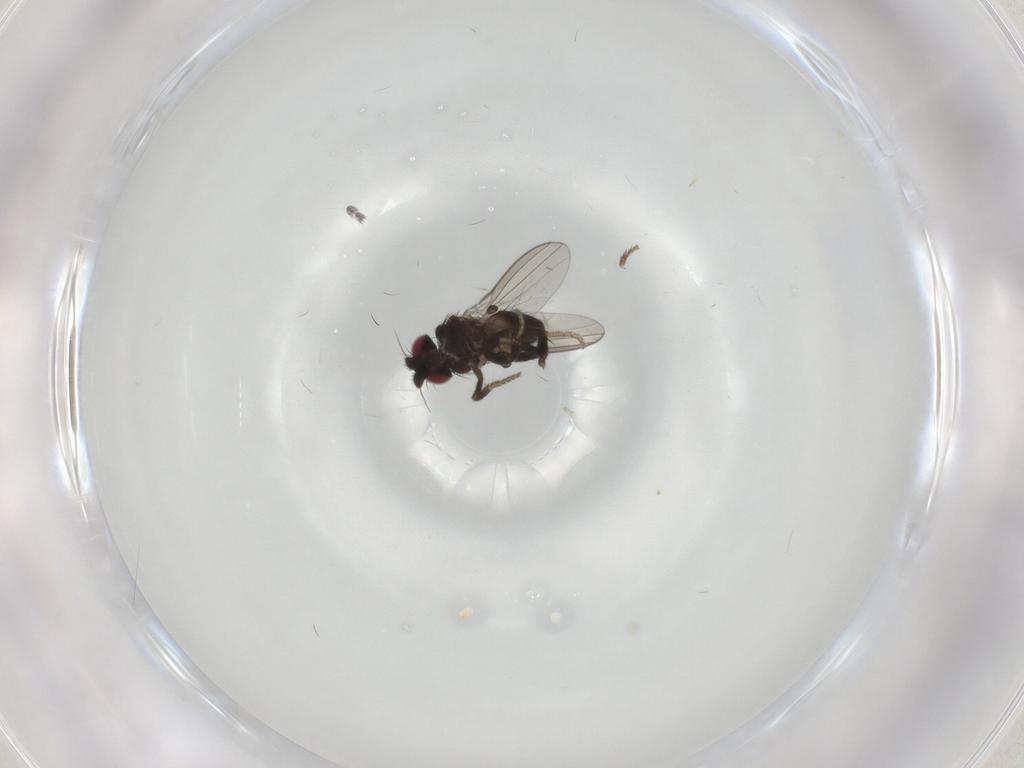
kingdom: Animalia
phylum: Arthropoda
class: Insecta
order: Diptera
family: Milichiidae
